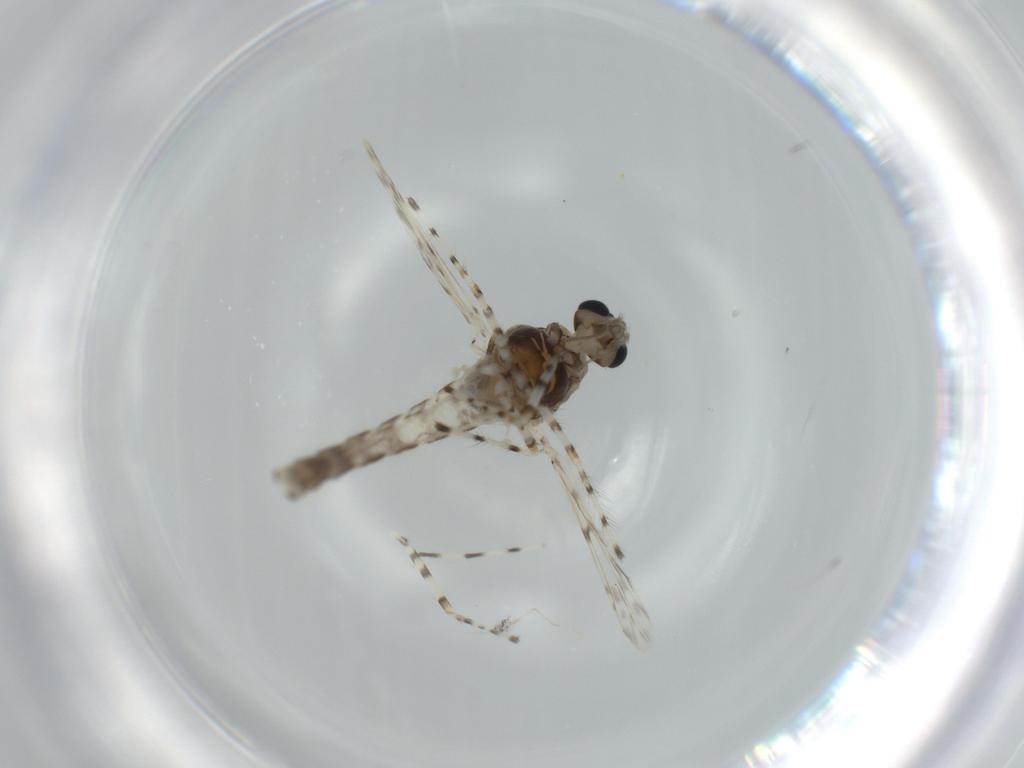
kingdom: Animalia
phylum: Arthropoda
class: Insecta
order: Diptera
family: Chironomidae
